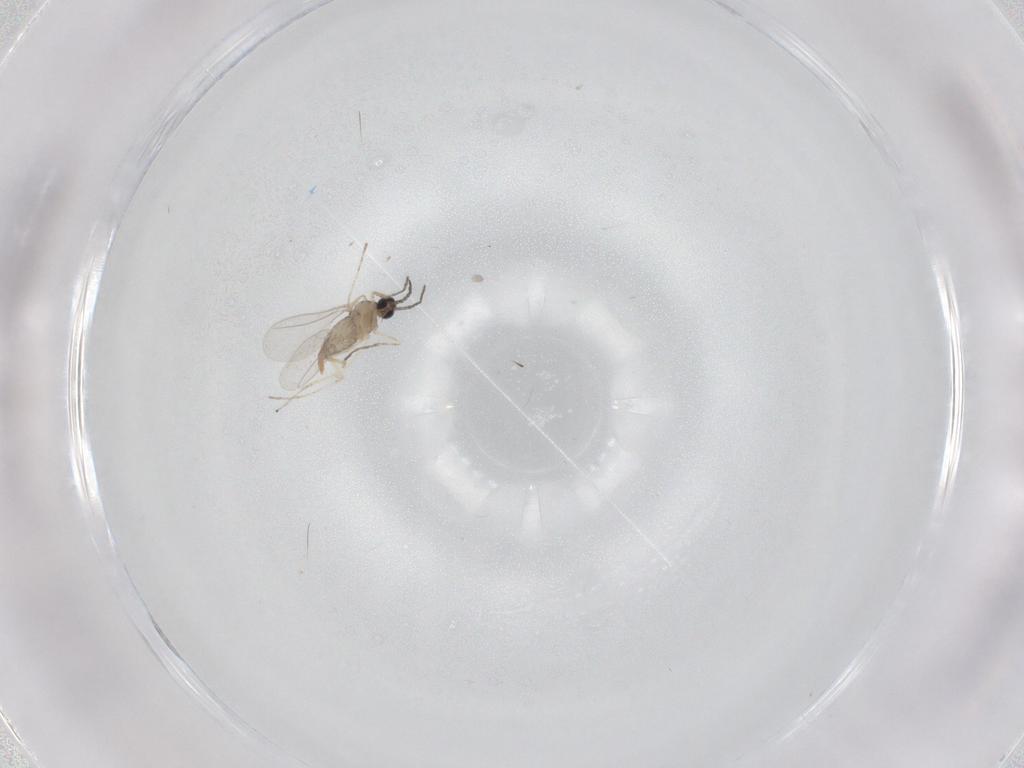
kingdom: Animalia
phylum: Arthropoda
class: Insecta
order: Diptera
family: Cecidomyiidae
